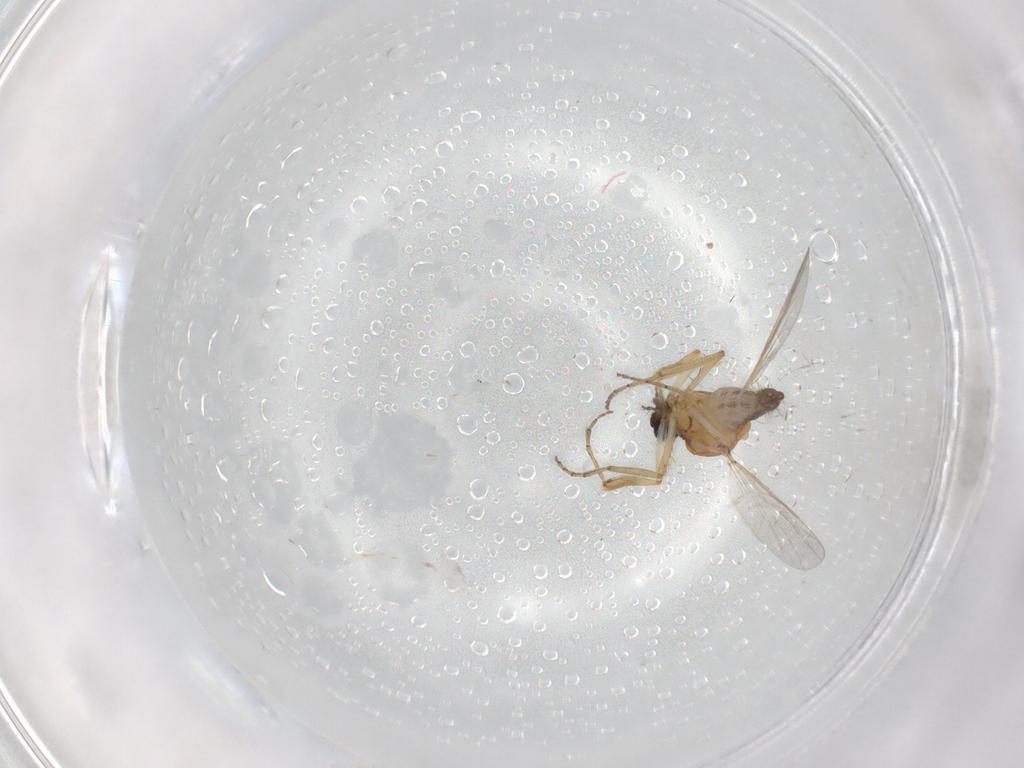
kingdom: Animalia
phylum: Arthropoda
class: Insecta
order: Diptera
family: Ceratopogonidae
